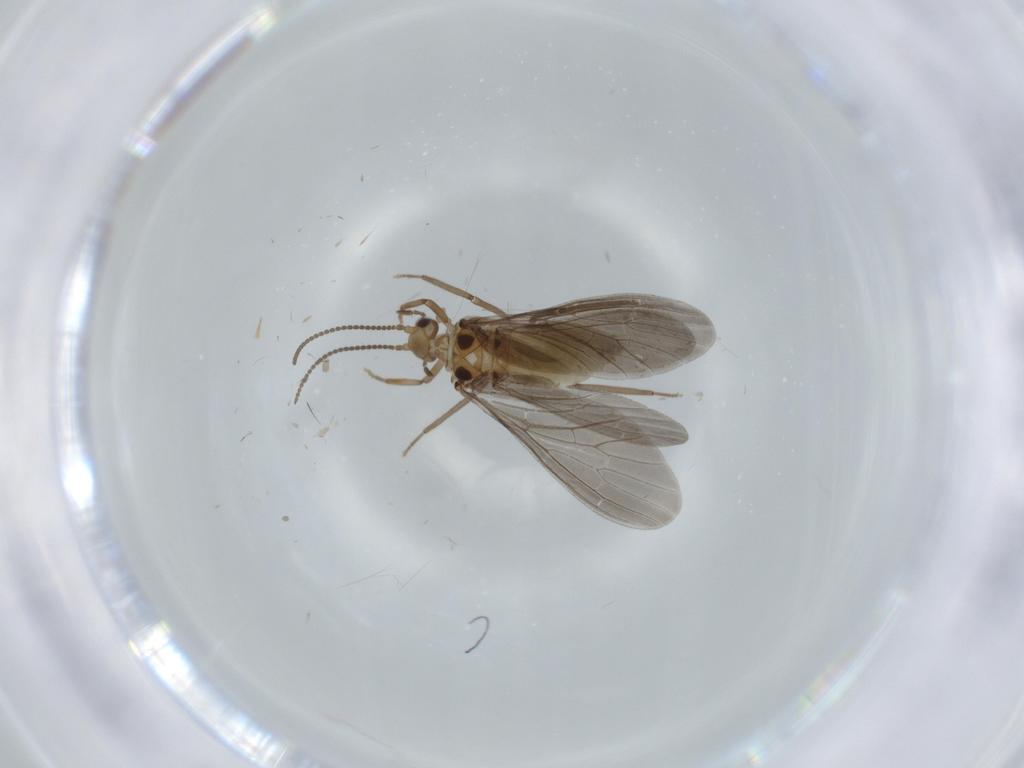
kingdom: Animalia
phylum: Arthropoda
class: Insecta
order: Neuroptera
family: Coniopterygidae
